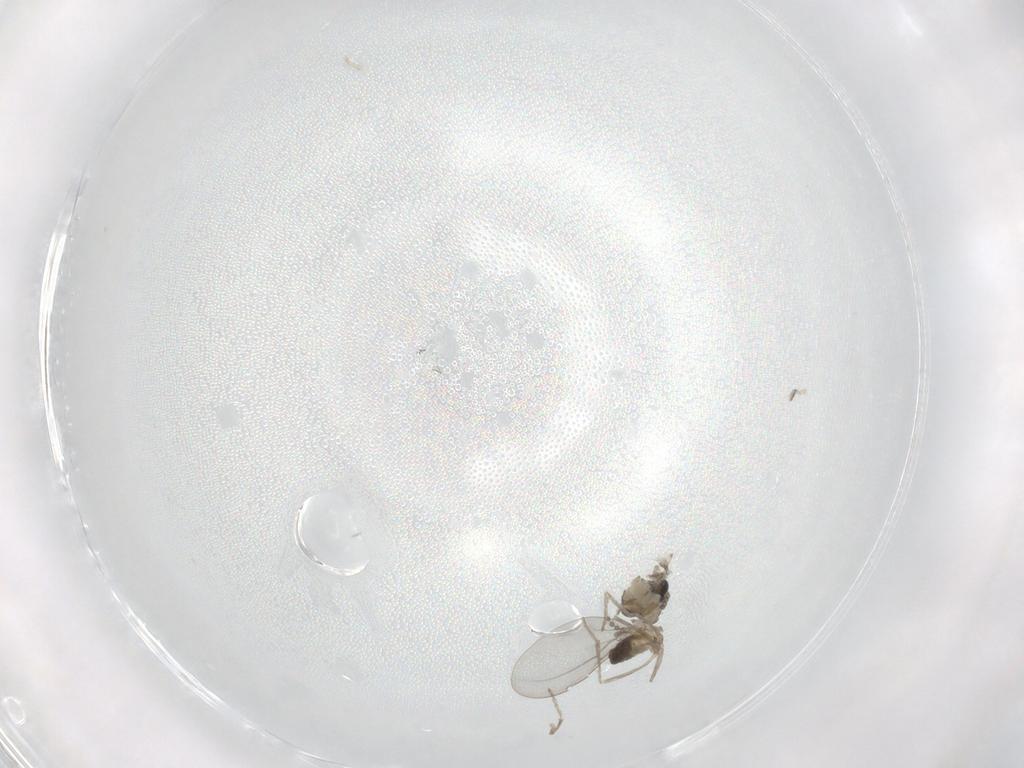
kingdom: Animalia
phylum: Arthropoda
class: Insecta
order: Diptera
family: Cecidomyiidae
